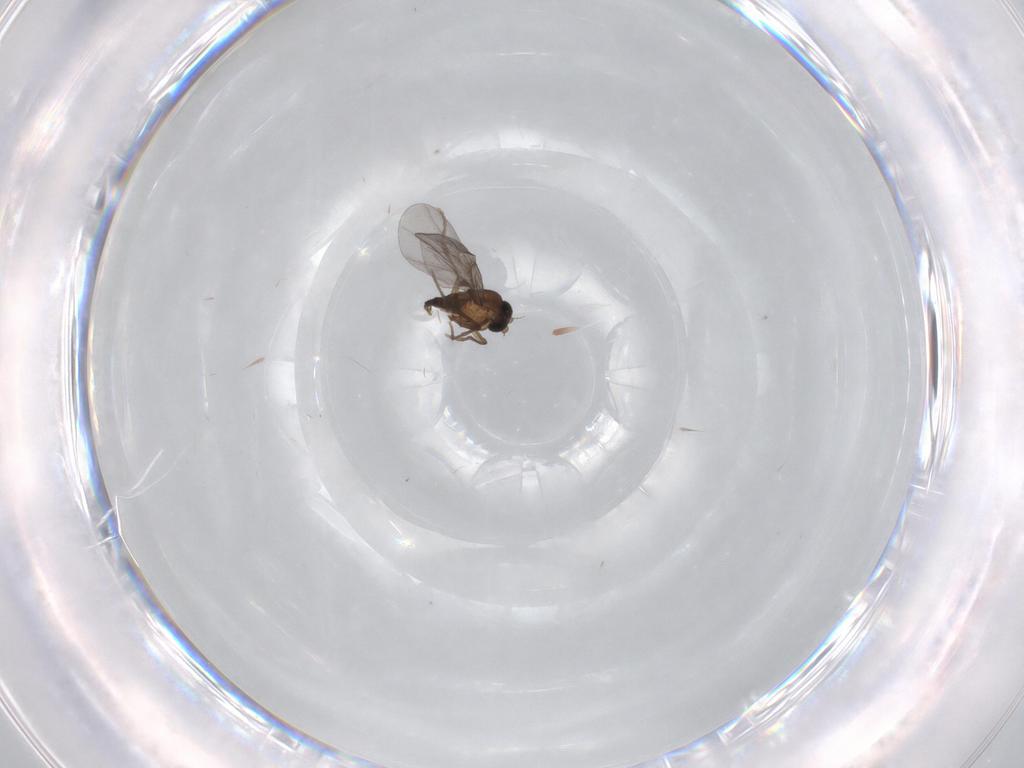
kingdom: Animalia
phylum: Arthropoda
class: Insecta
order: Diptera
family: Phoridae
